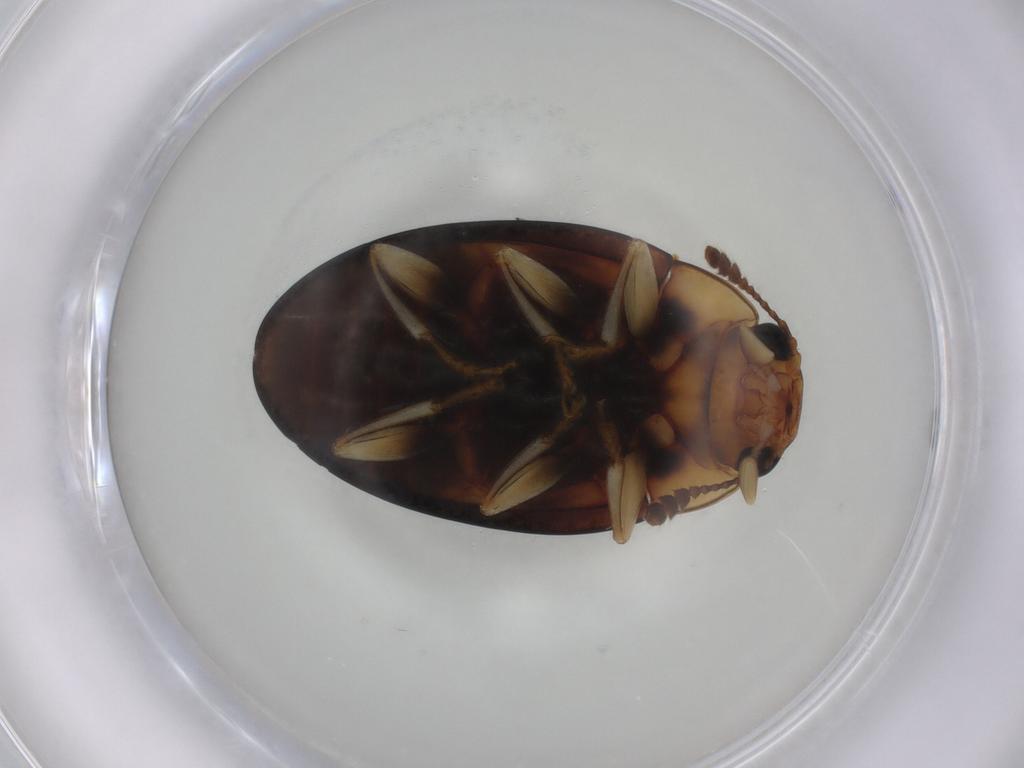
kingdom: Animalia
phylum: Arthropoda
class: Insecta
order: Coleoptera
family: Erotylidae
